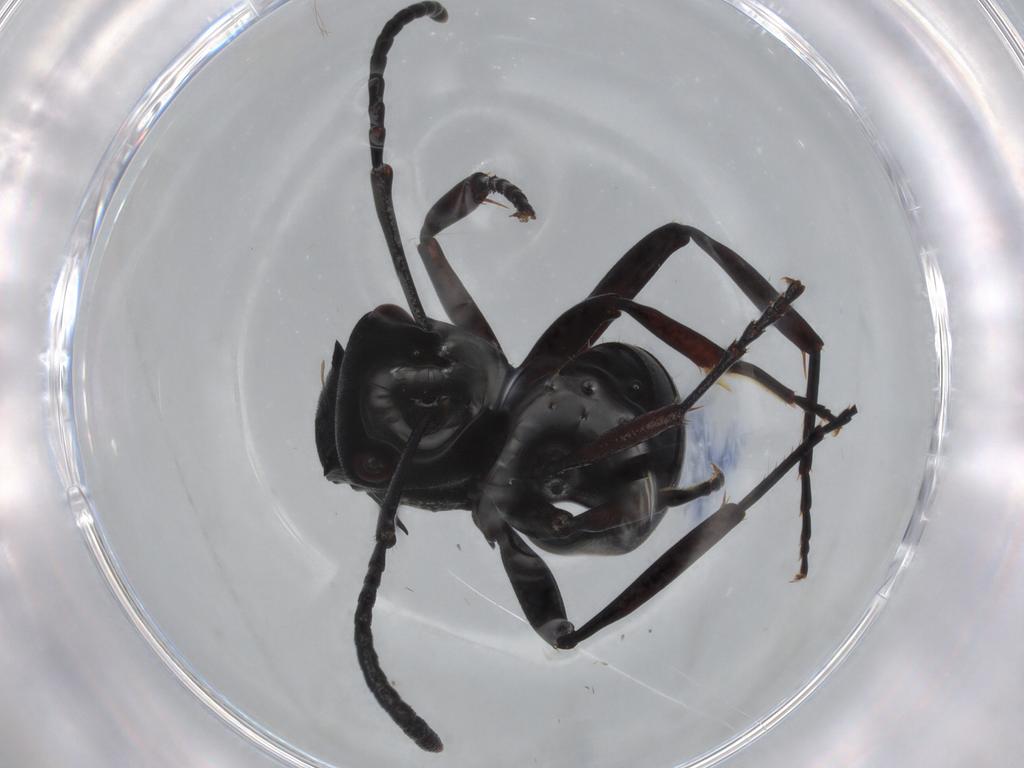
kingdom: Animalia
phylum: Arthropoda
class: Insecta
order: Hymenoptera
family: Formicidae
